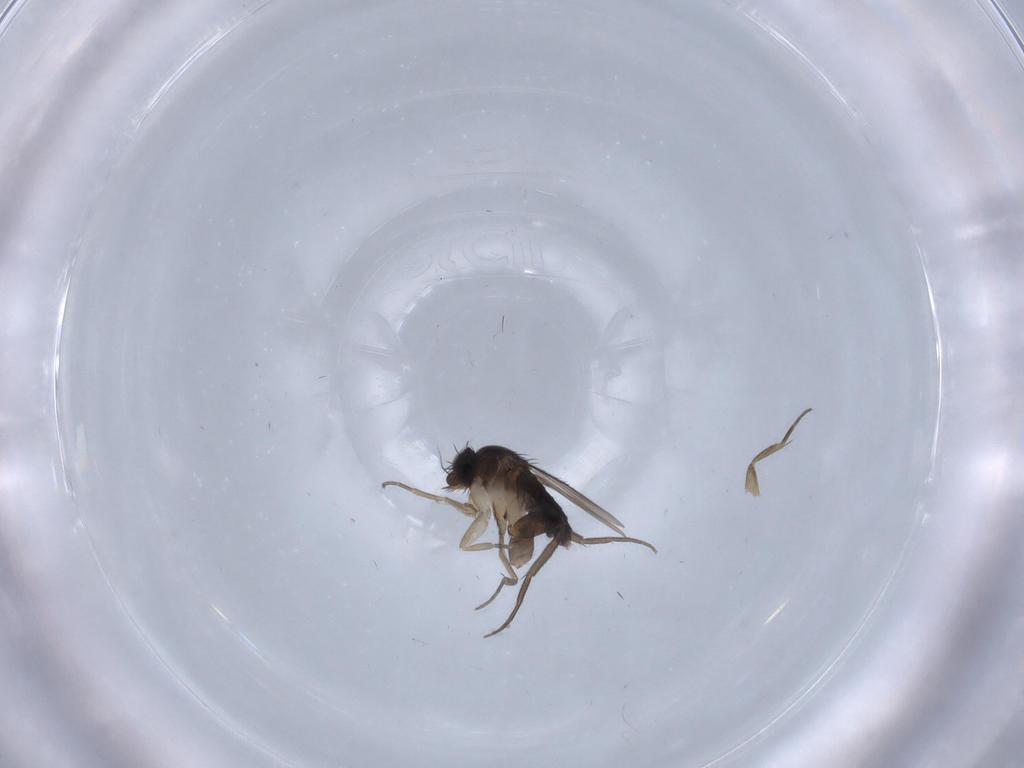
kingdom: Animalia
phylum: Arthropoda
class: Insecta
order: Diptera
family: Phoridae
